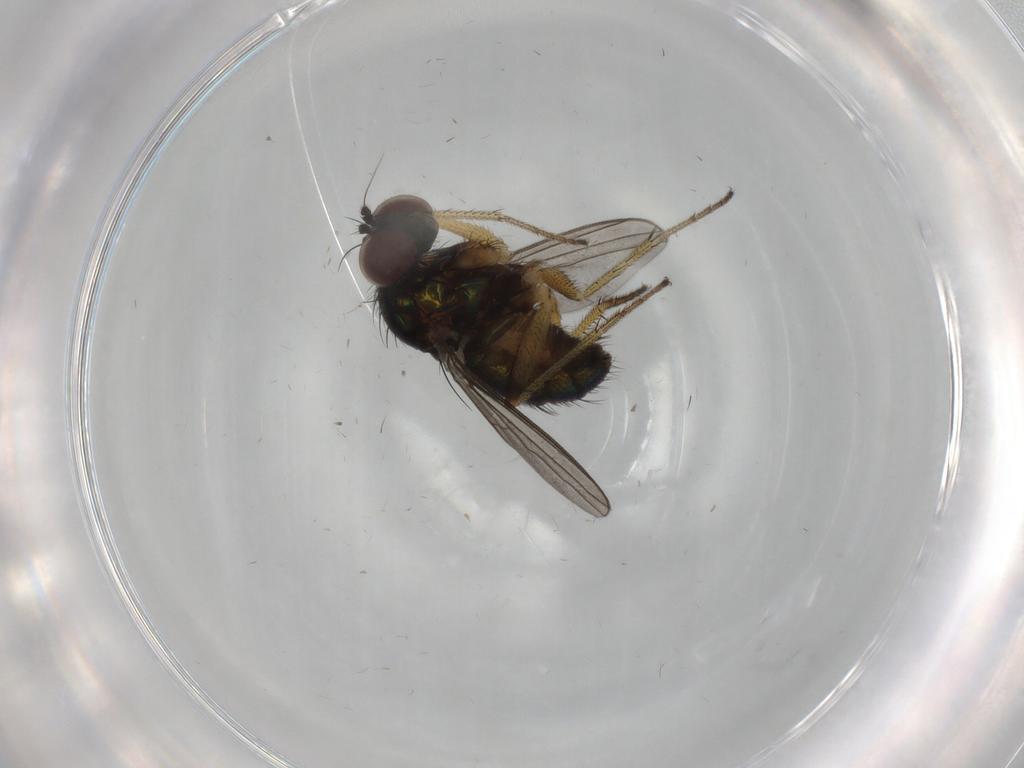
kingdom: Animalia
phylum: Arthropoda
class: Insecta
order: Diptera
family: Dolichopodidae
